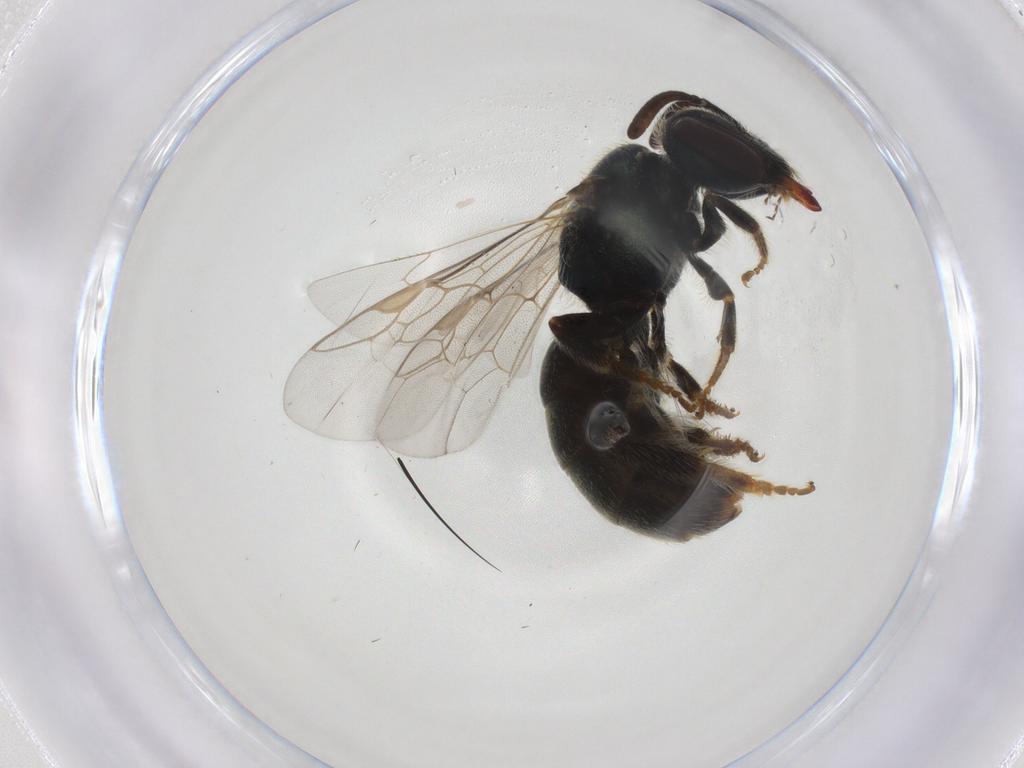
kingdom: Animalia
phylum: Arthropoda
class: Insecta
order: Hymenoptera
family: Halictidae
